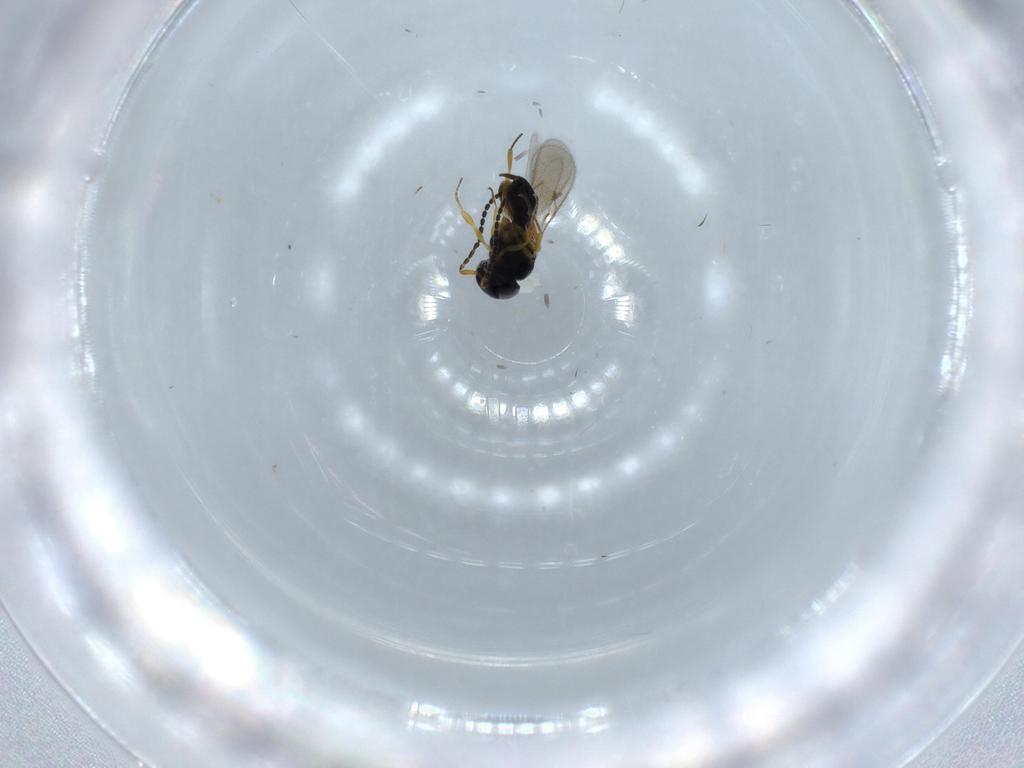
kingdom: Animalia
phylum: Arthropoda
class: Insecta
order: Hymenoptera
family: Scelionidae
